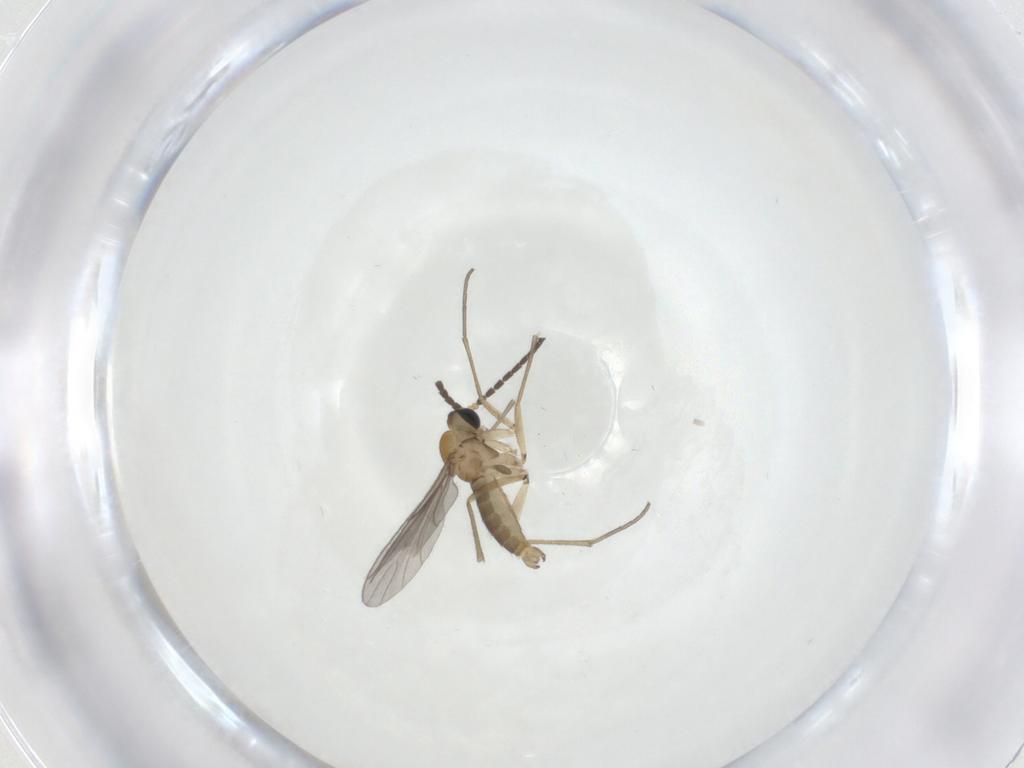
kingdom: Animalia
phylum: Arthropoda
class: Insecta
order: Diptera
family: Sciaridae
